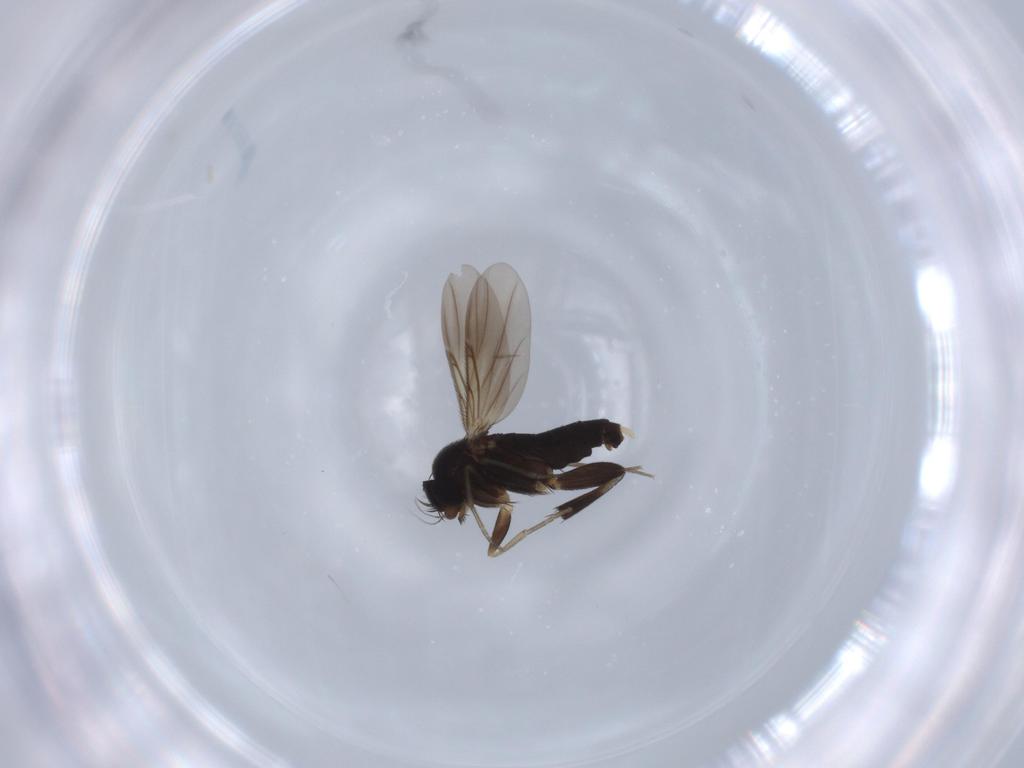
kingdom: Animalia
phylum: Arthropoda
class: Insecta
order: Diptera
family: Phoridae
